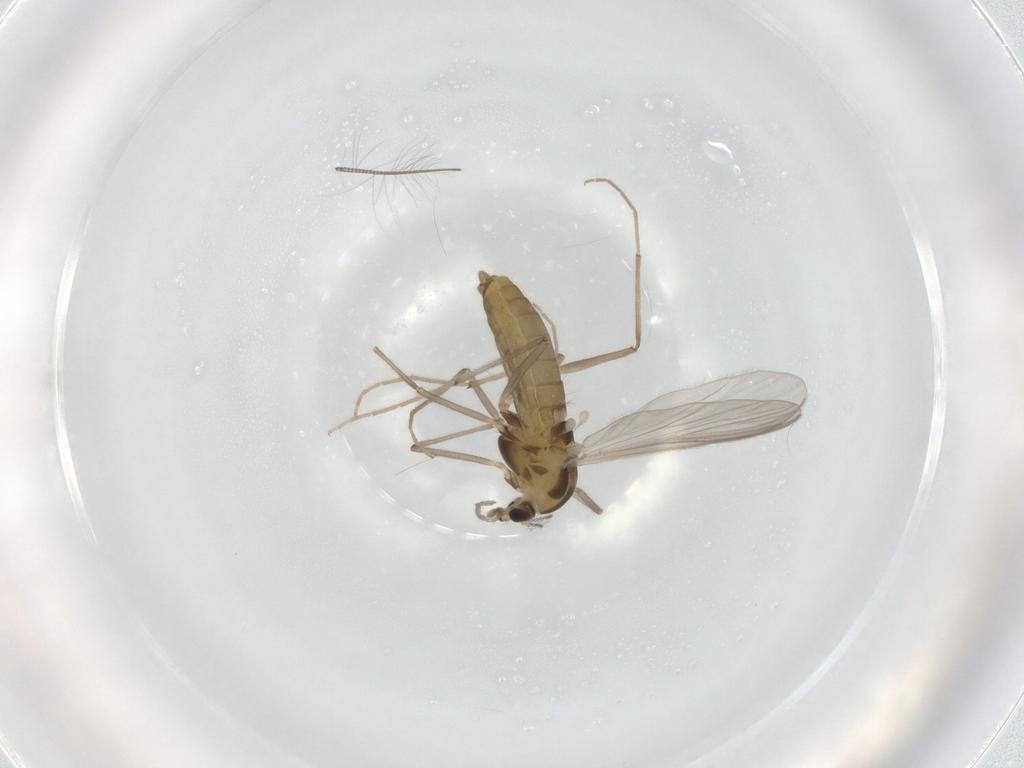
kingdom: Animalia
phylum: Arthropoda
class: Insecta
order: Diptera
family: Chironomidae
